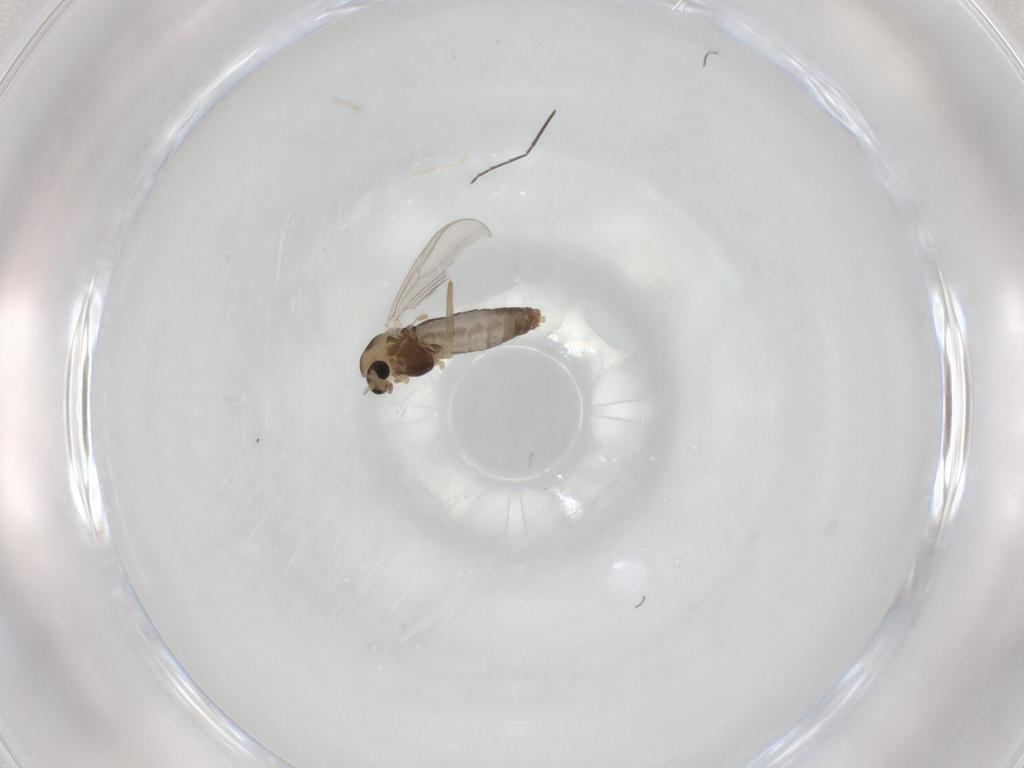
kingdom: Animalia
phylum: Arthropoda
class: Insecta
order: Diptera
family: Chironomidae
